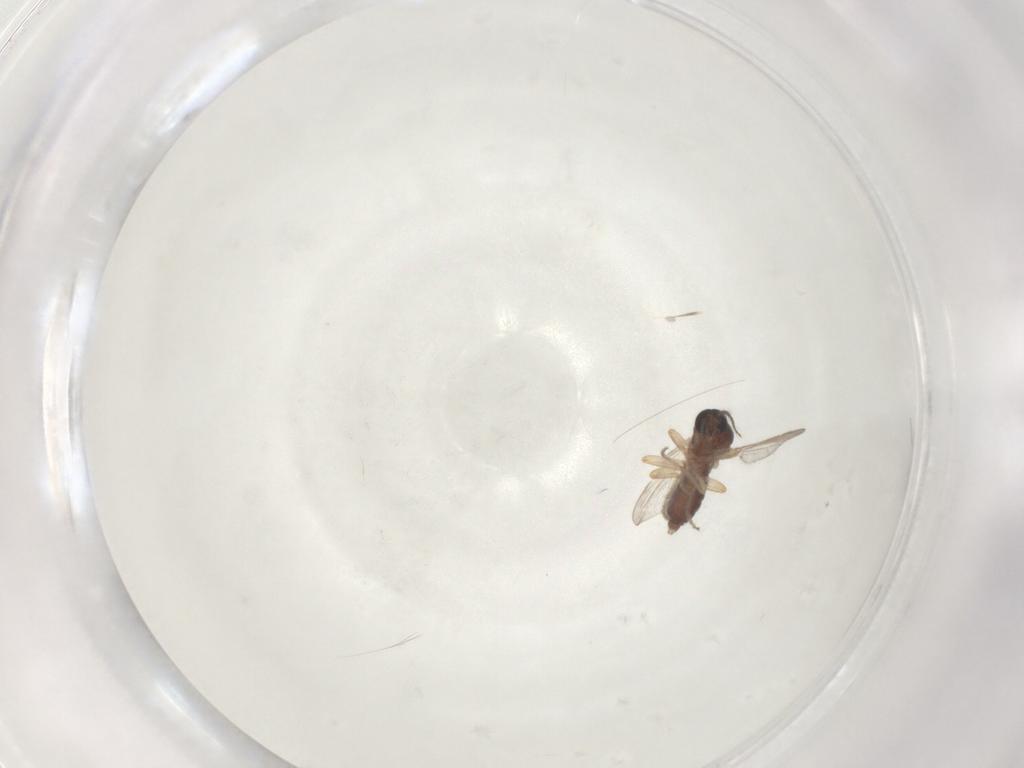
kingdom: Animalia
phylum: Arthropoda
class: Insecta
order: Diptera
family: Ceratopogonidae
